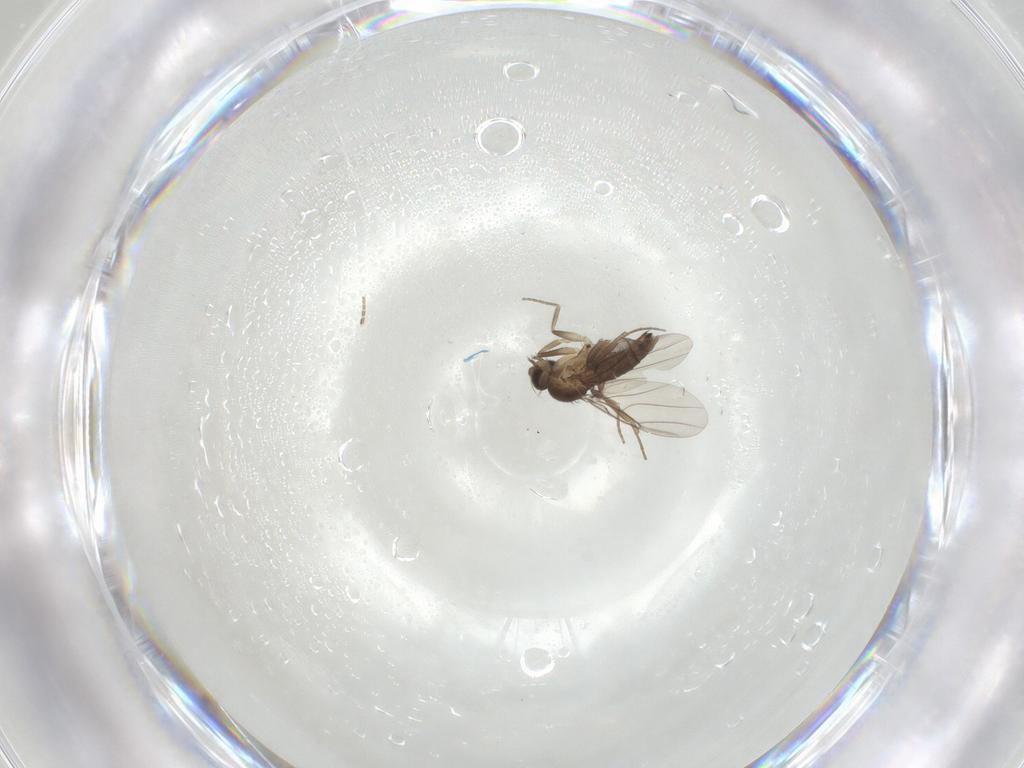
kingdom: Animalia
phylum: Arthropoda
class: Insecta
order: Diptera
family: Phoridae
